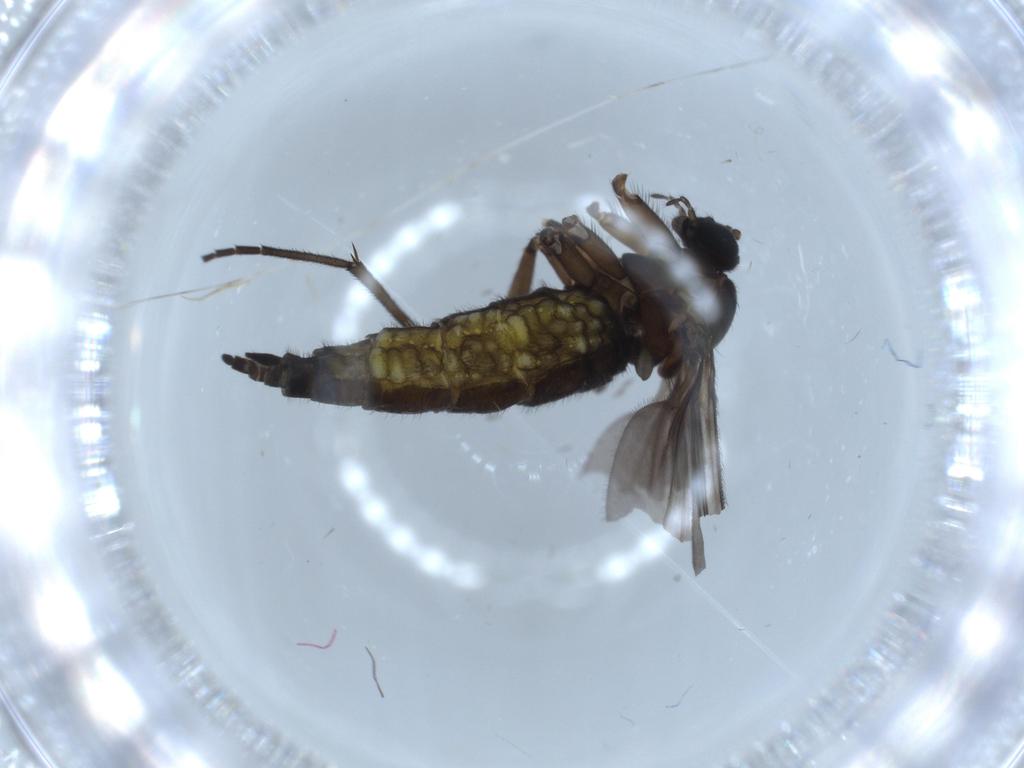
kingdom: Animalia
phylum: Arthropoda
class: Insecta
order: Diptera
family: Sciaridae
